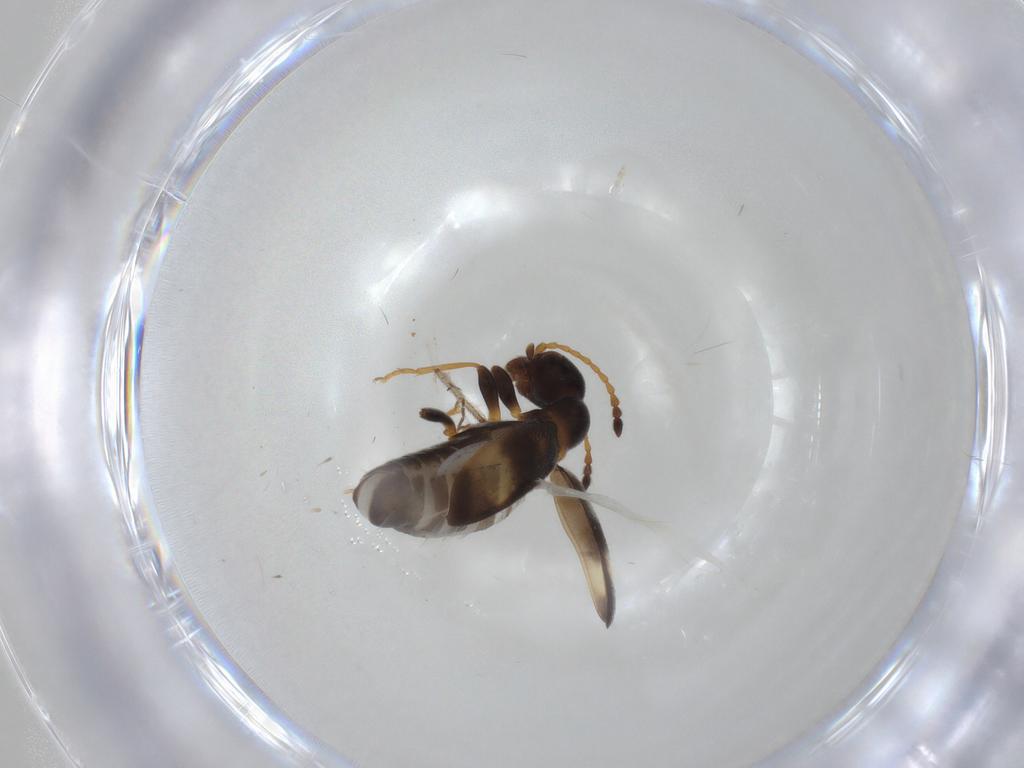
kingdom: Animalia
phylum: Arthropoda
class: Insecta
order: Coleoptera
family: Anthicidae
